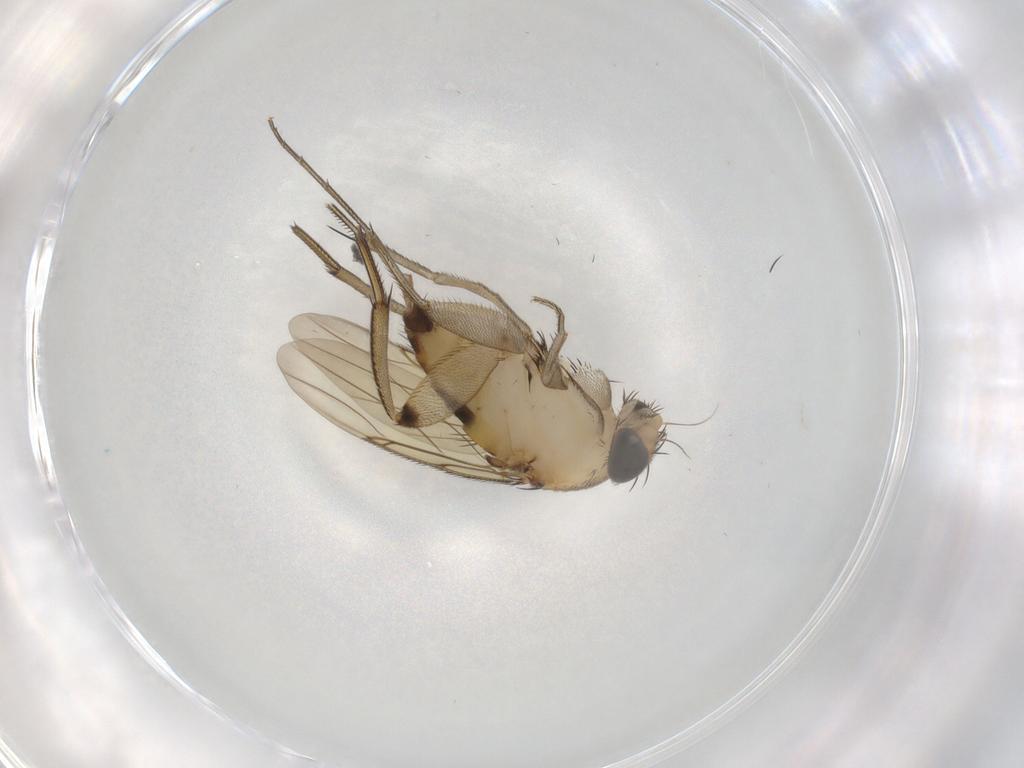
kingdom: Animalia
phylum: Arthropoda
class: Insecta
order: Diptera
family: Phoridae
